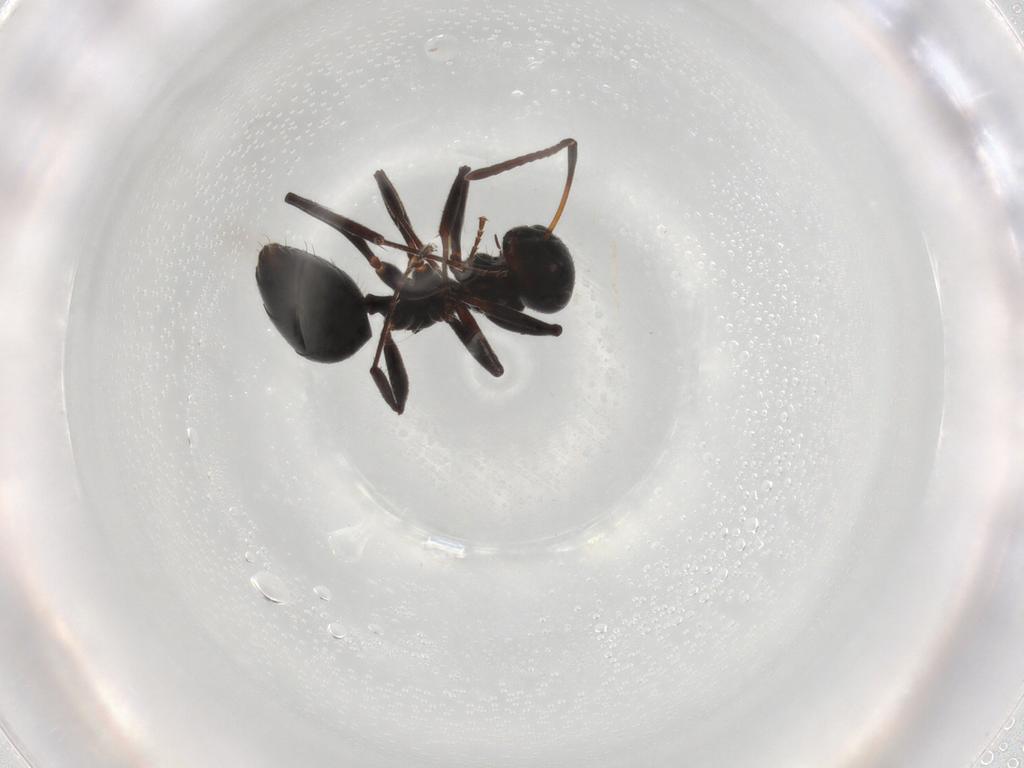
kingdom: Animalia
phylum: Arthropoda
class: Insecta
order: Hymenoptera
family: Formicidae
